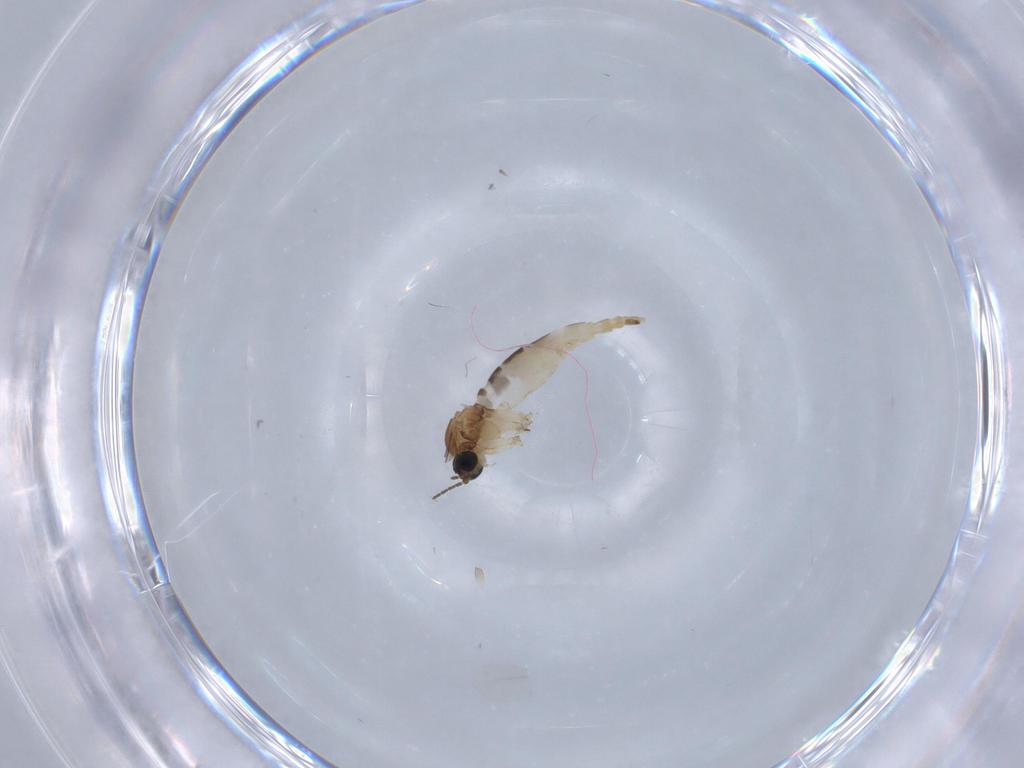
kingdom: Animalia
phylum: Arthropoda
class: Insecta
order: Diptera
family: Sciaridae
